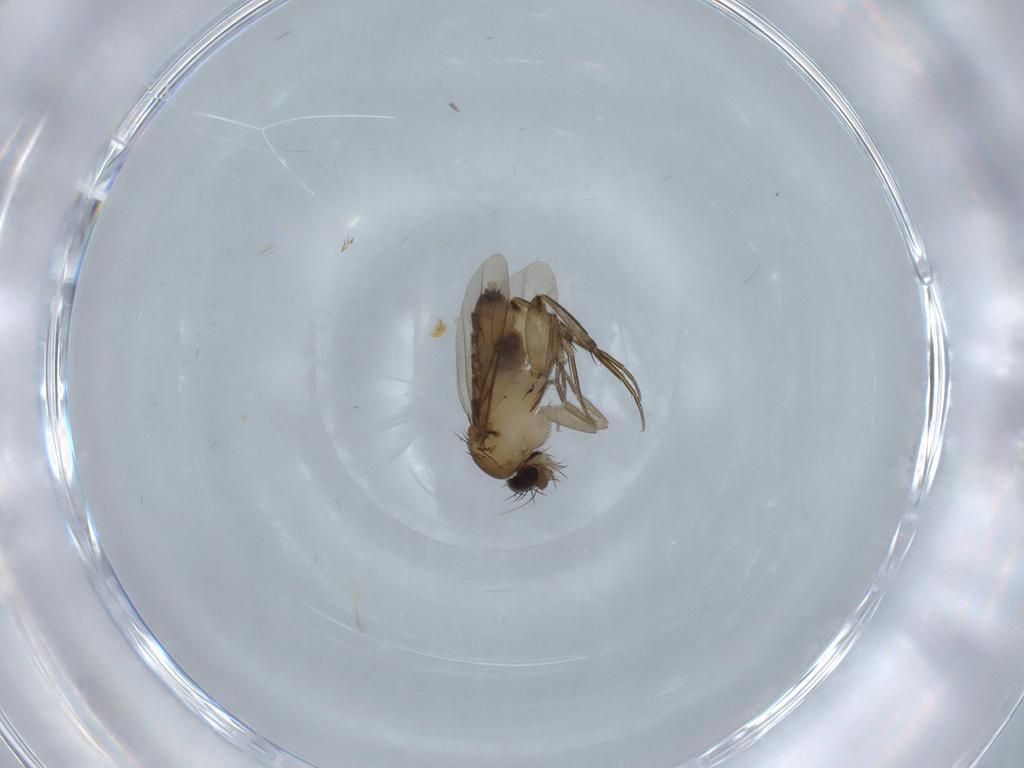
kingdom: Animalia
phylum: Arthropoda
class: Insecta
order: Diptera
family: Phoridae
